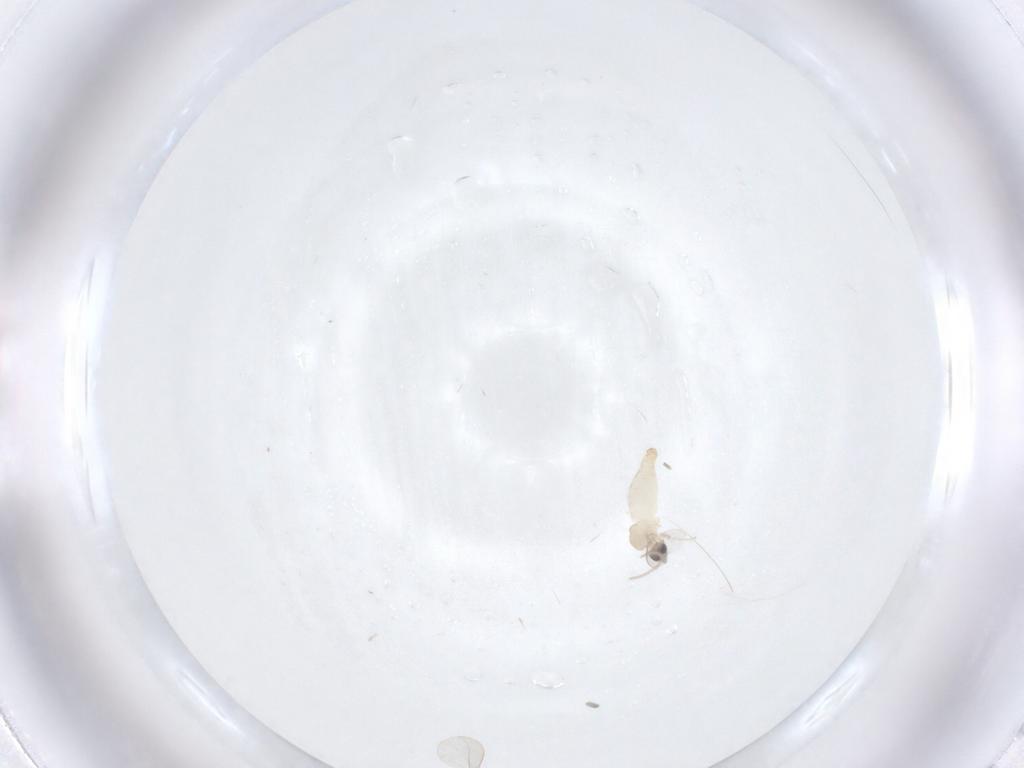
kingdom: Animalia
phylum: Arthropoda
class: Insecta
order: Diptera
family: Cecidomyiidae
